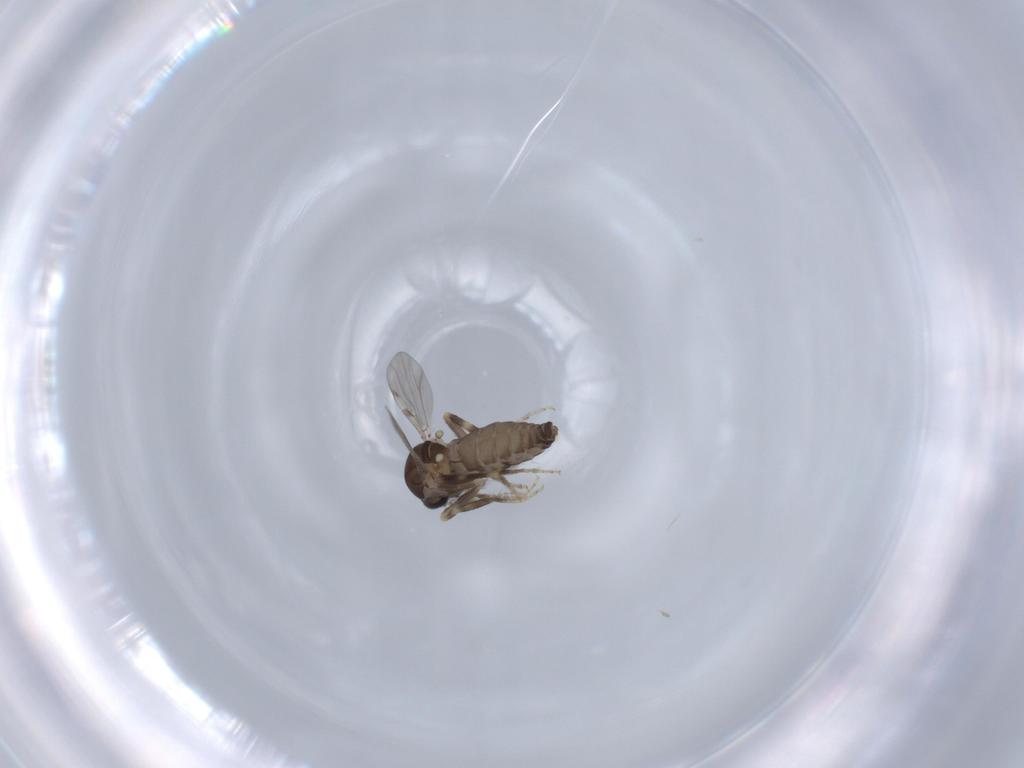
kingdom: Animalia
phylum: Arthropoda
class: Insecta
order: Diptera
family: Ceratopogonidae
